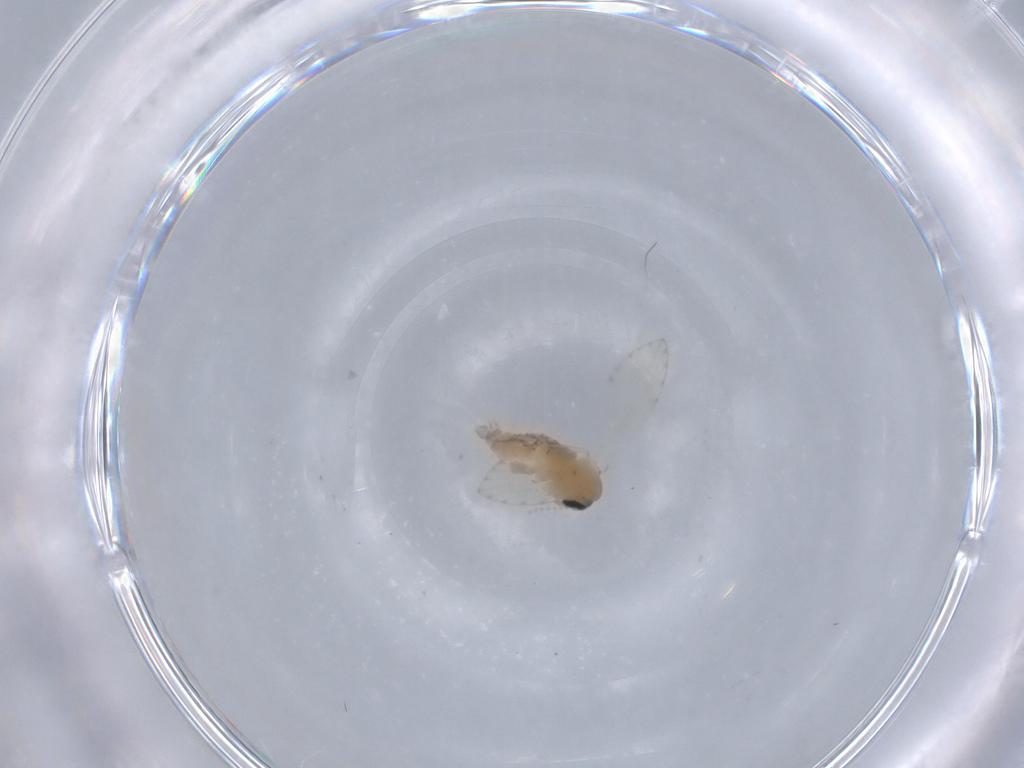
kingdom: Animalia
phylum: Arthropoda
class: Insecta
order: Diptera
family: Psychodidae
